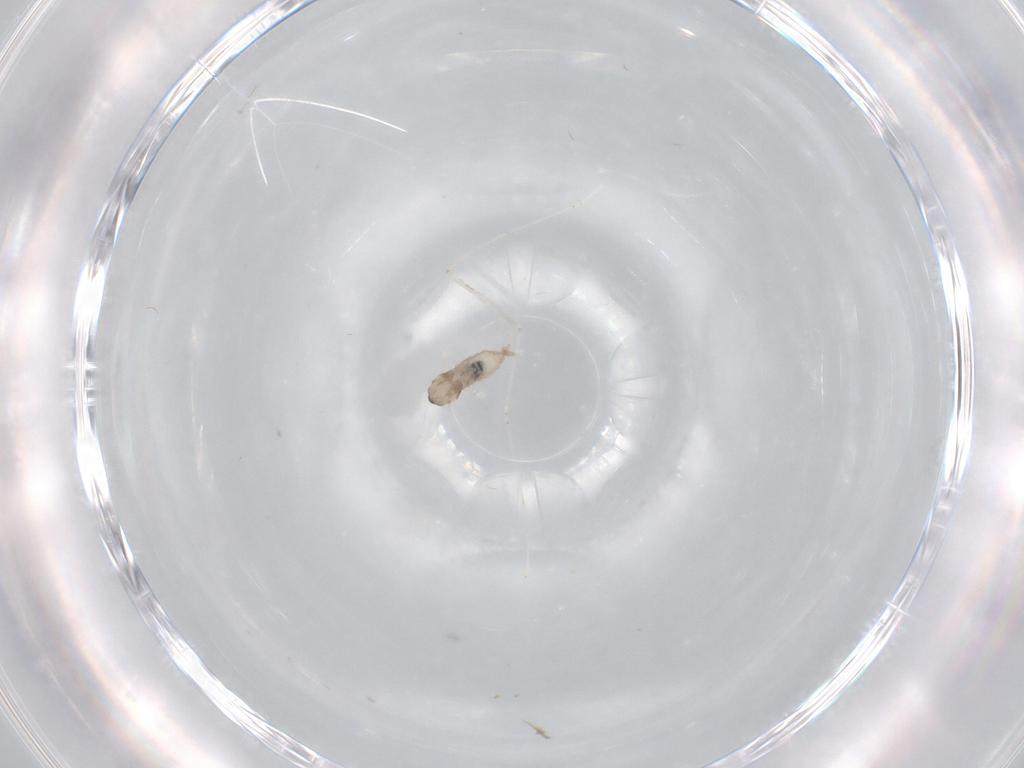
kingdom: Animalia
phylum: Arthropoda
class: Insecta
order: Diptera
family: Cecidomyiidae
